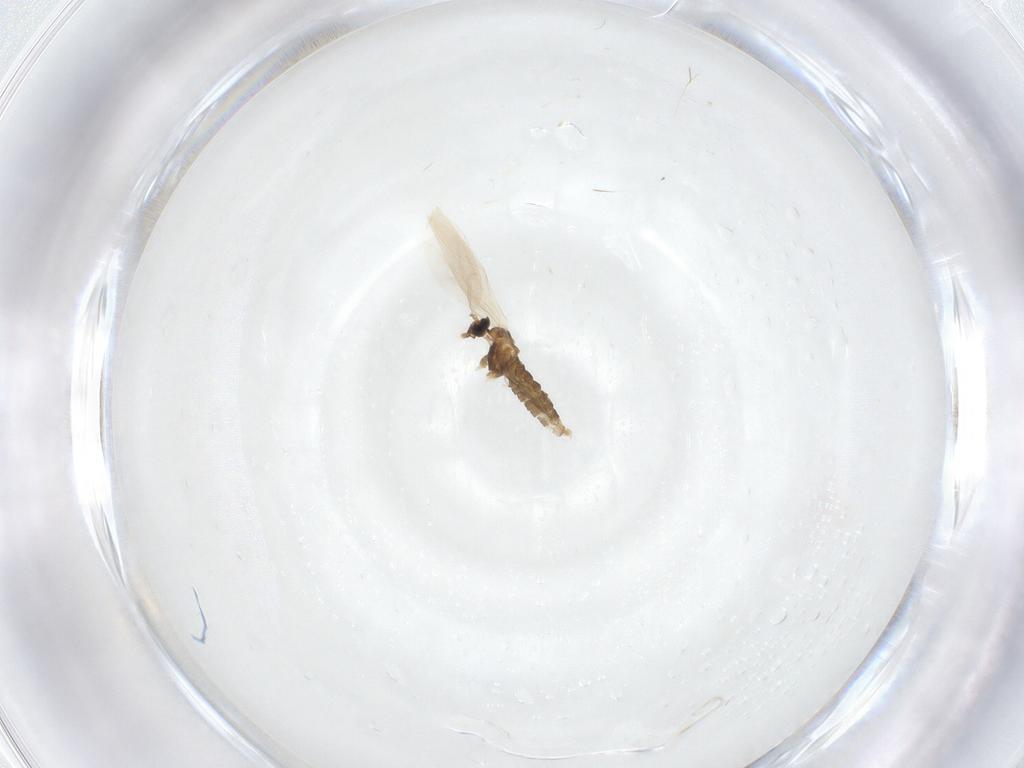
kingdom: Animalia
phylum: Arthropoda
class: Insecta
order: Diptera
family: Cecidomyiidae
